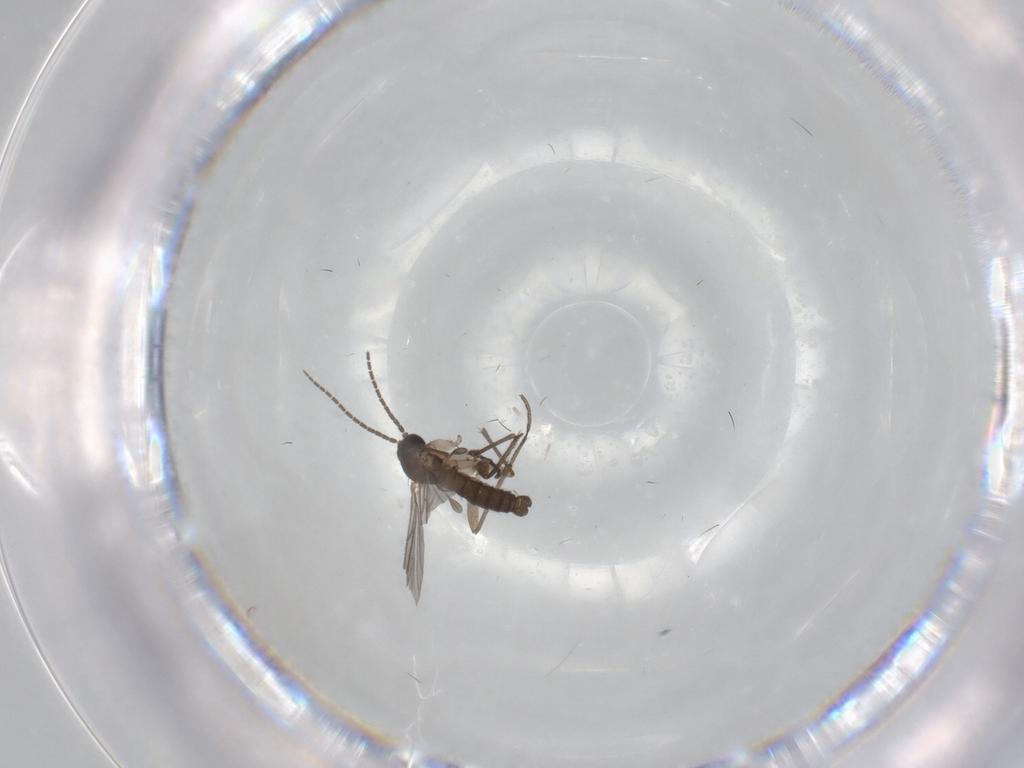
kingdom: Animalia
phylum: Arthropoda
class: Insecta
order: Diptera
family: Sciaridae
